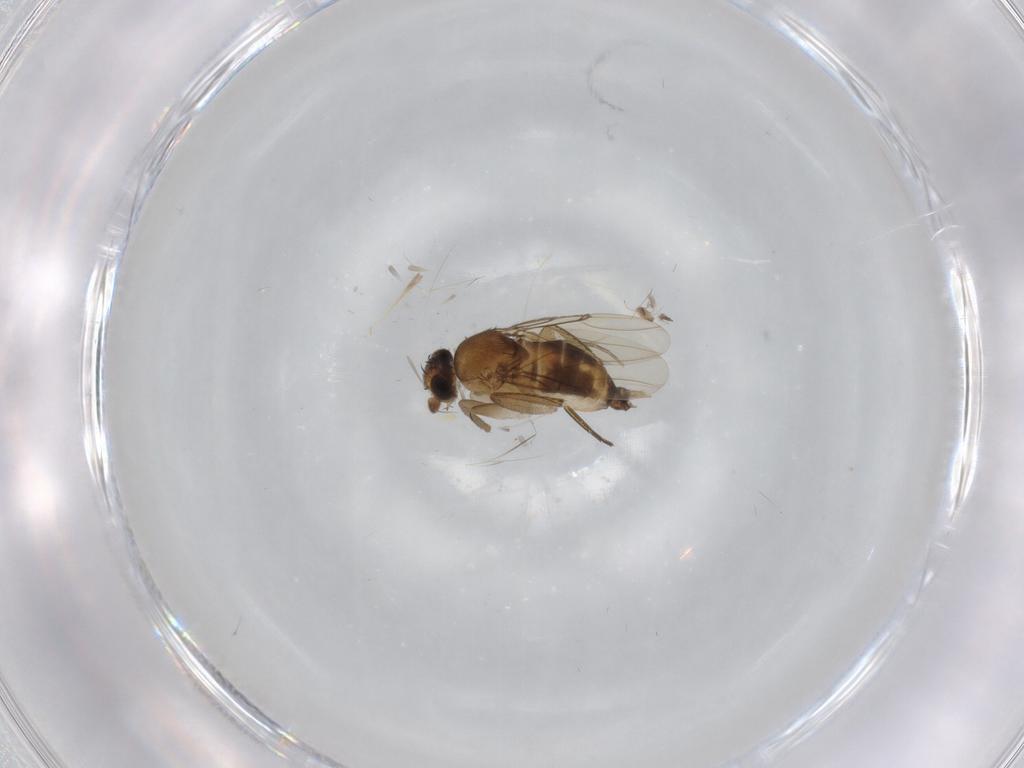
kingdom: Animalia
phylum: Arthropoda
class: Insecta
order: Diptera
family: Phoridae
